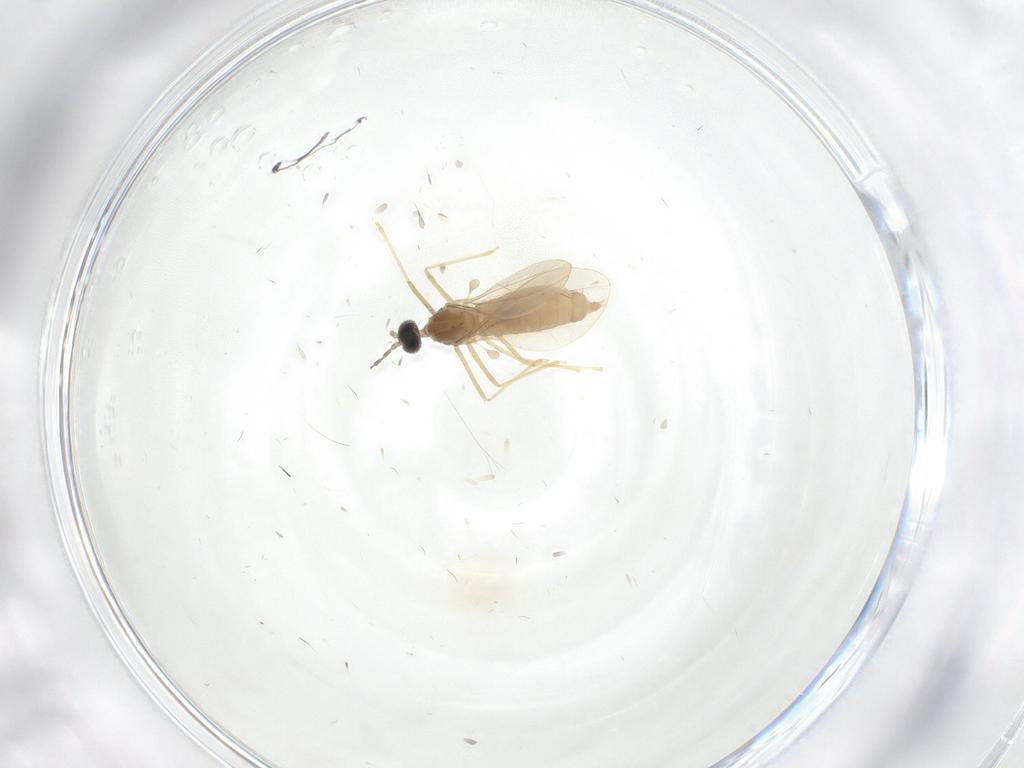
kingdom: Animalia
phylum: Arthropoda
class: Insecta
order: Diptera
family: Cecidomyiidae
